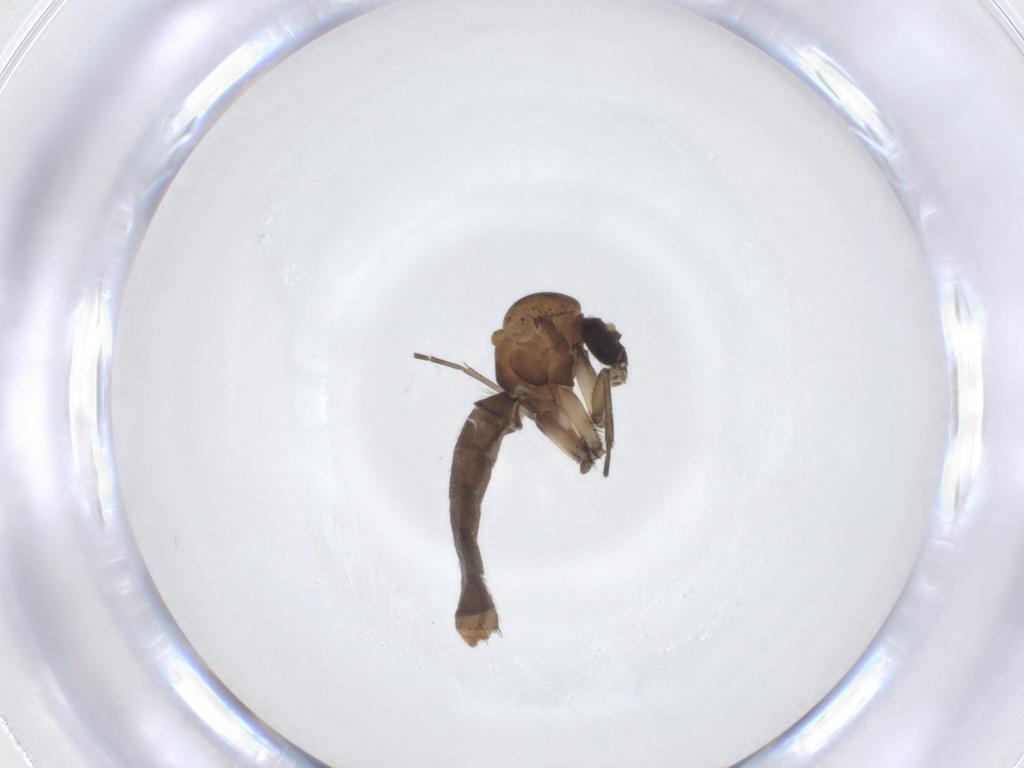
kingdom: Animalia
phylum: Arthropoda
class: Insecta
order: Diptera
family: Mycetophilidae
